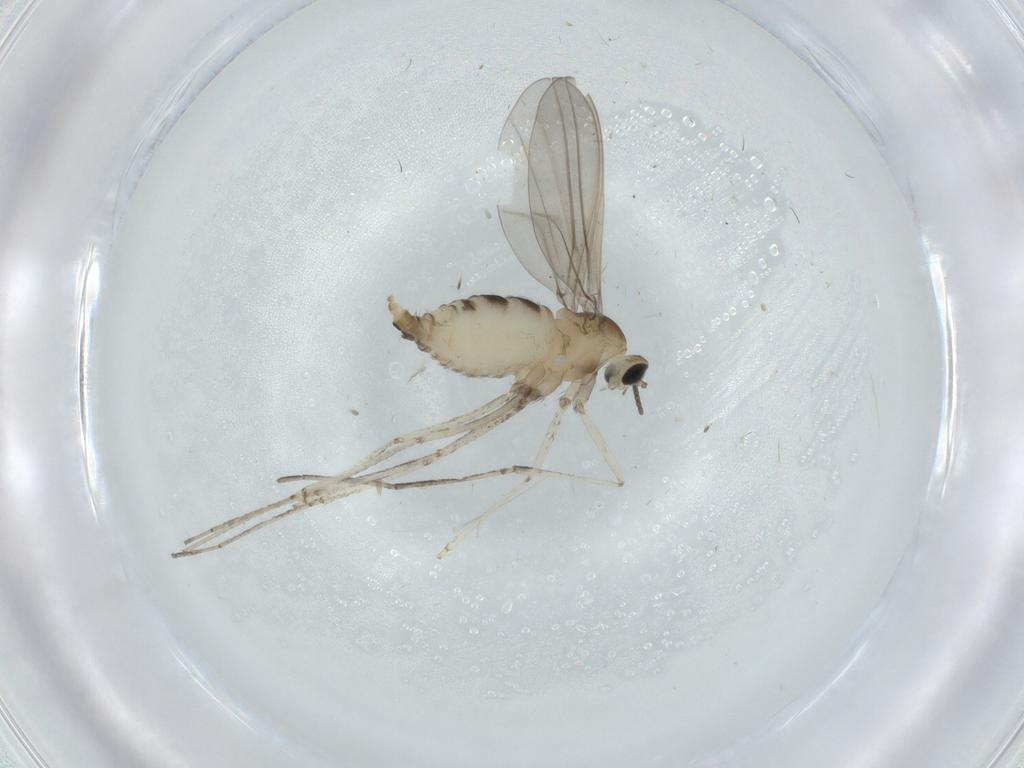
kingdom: Animalia
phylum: Arthropoda
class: Insecta
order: Diptera
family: Cecidomyiidae
